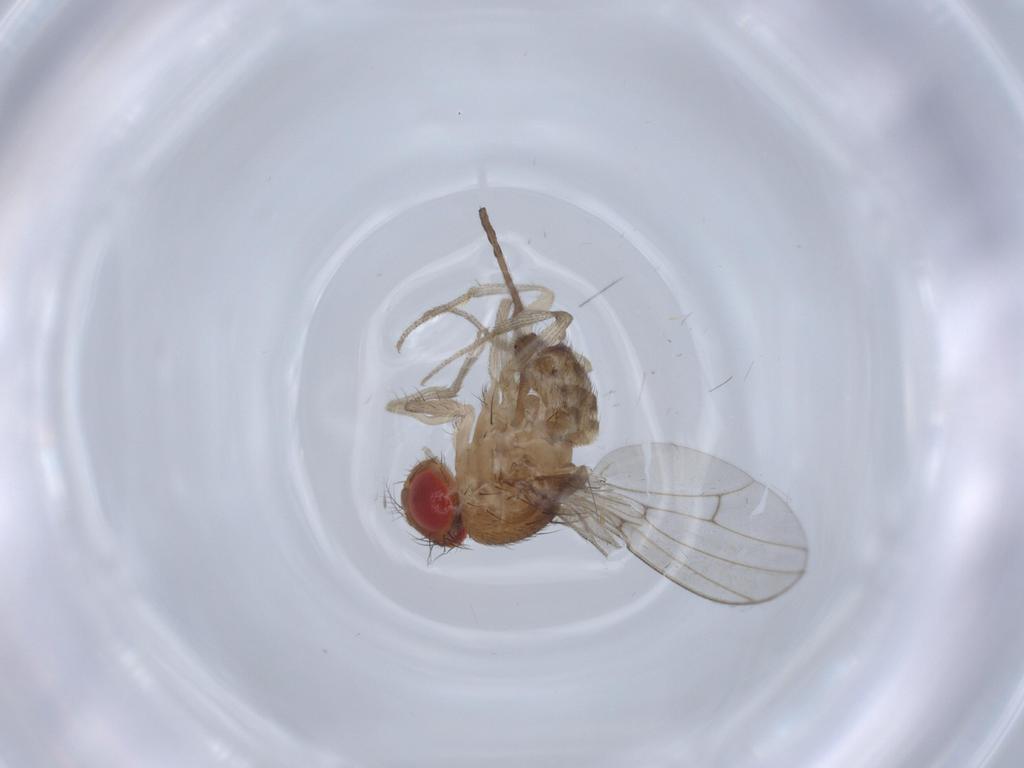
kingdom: Animalia
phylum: Arthropoda
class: Insecta
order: Diptera
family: Drosophilidae
